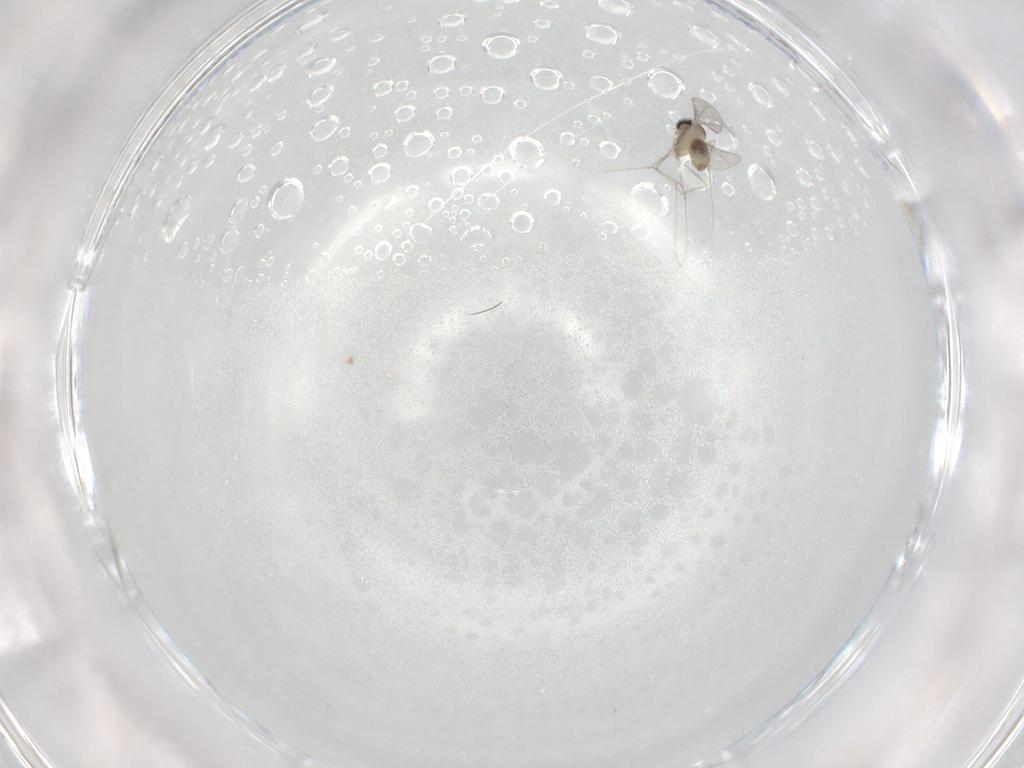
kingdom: Animalia
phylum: Arthropoda
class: Insecta
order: Diptera
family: Cecidomyiidae
